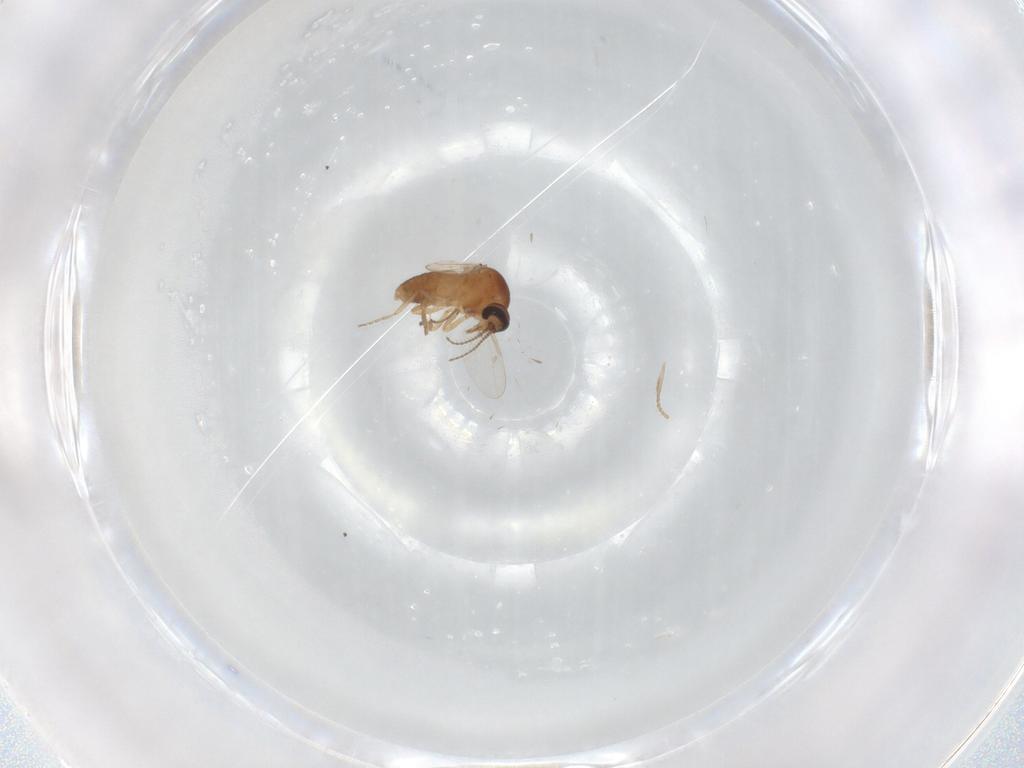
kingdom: Animalia
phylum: Arthropoda
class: Insecta
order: Diptera
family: Ceratopogonidae
